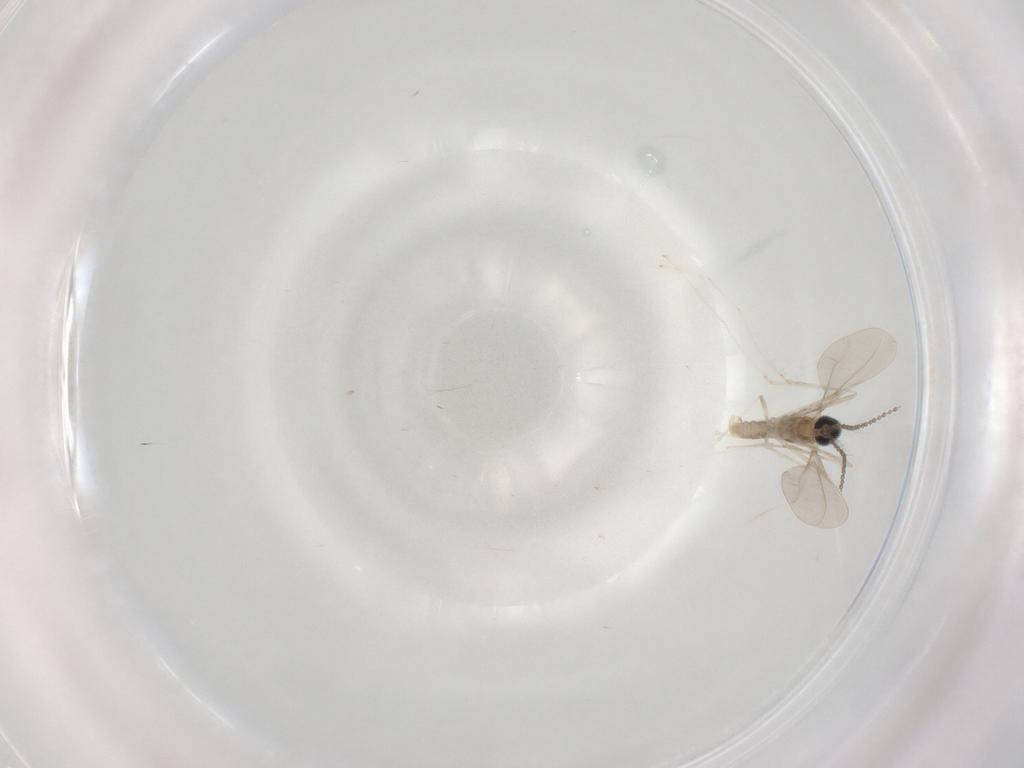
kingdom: Animalia
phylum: Arthropoda
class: Insecta
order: Diptera
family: Cecidomyiidae
